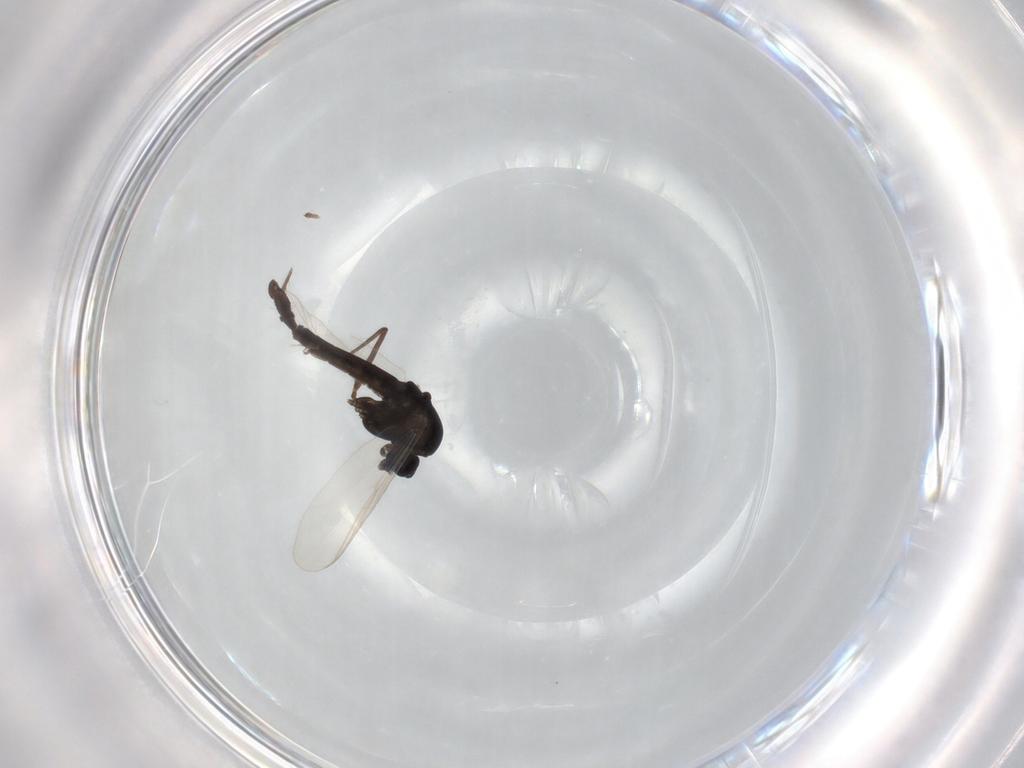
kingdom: Animalia
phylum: Arthropoda
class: Insecta
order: Diptera
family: Chironomidae
